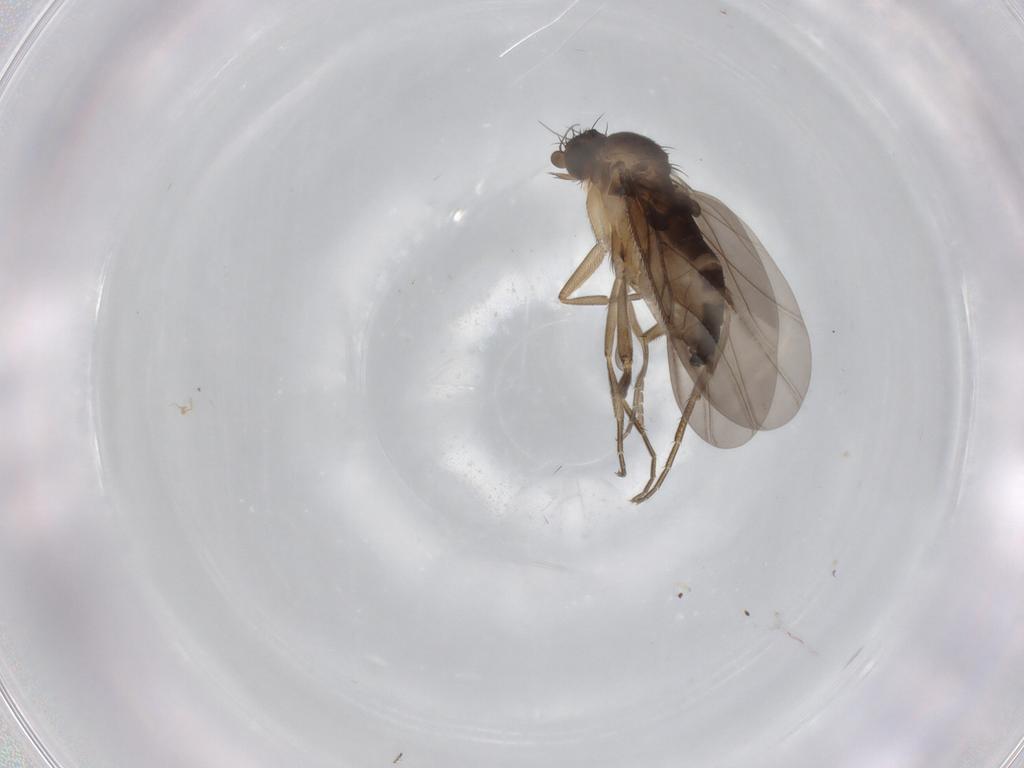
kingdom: Animalia
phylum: Arthropoda
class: Insecta
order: Diptera
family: Phoridae
